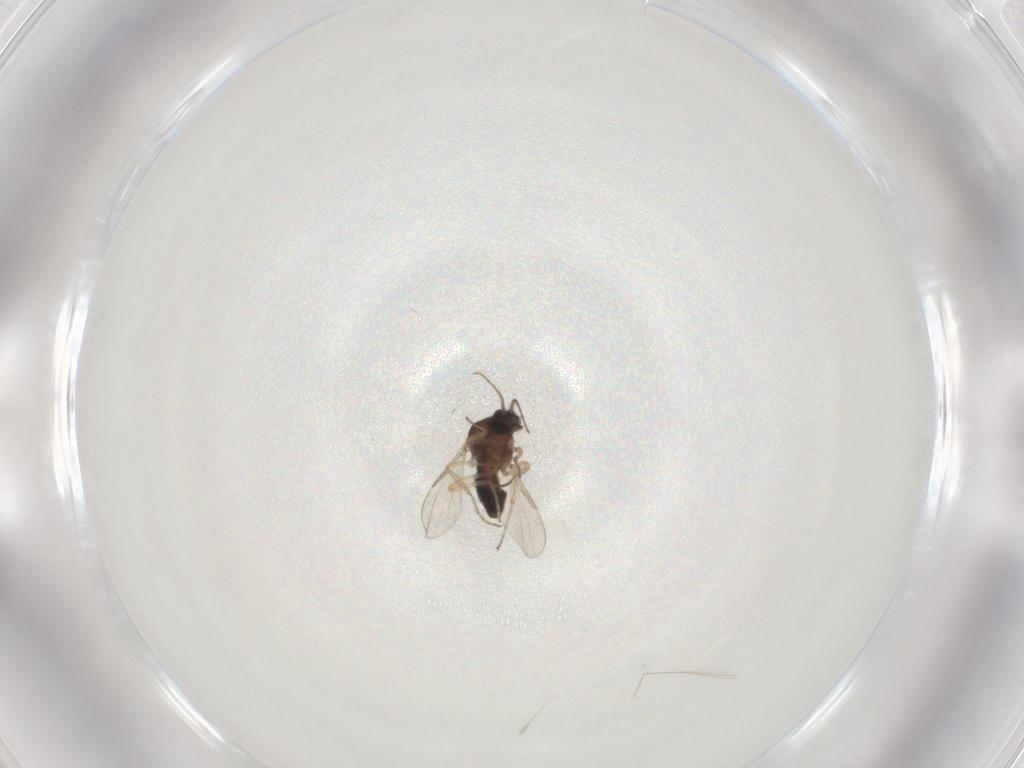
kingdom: Animalia
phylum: Arthropoda
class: Insecta
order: Diptera
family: Ceratopogonidae
